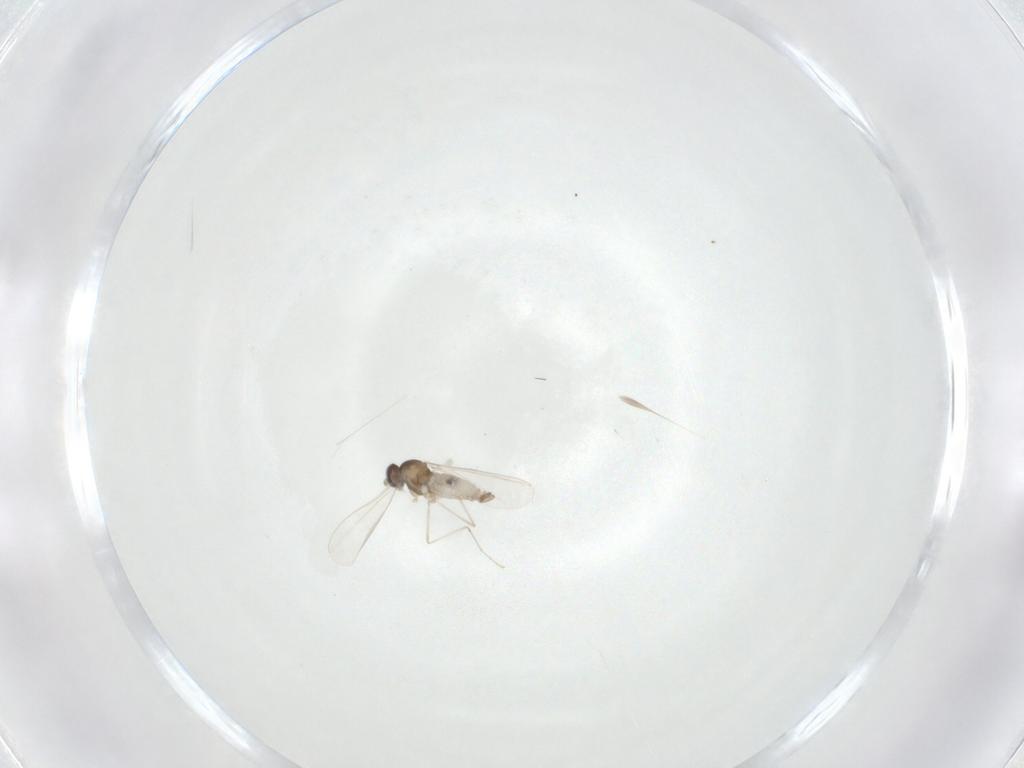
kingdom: Animalia
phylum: Arthropoda
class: Insecta
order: Diptera
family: Cecidomyiidae
